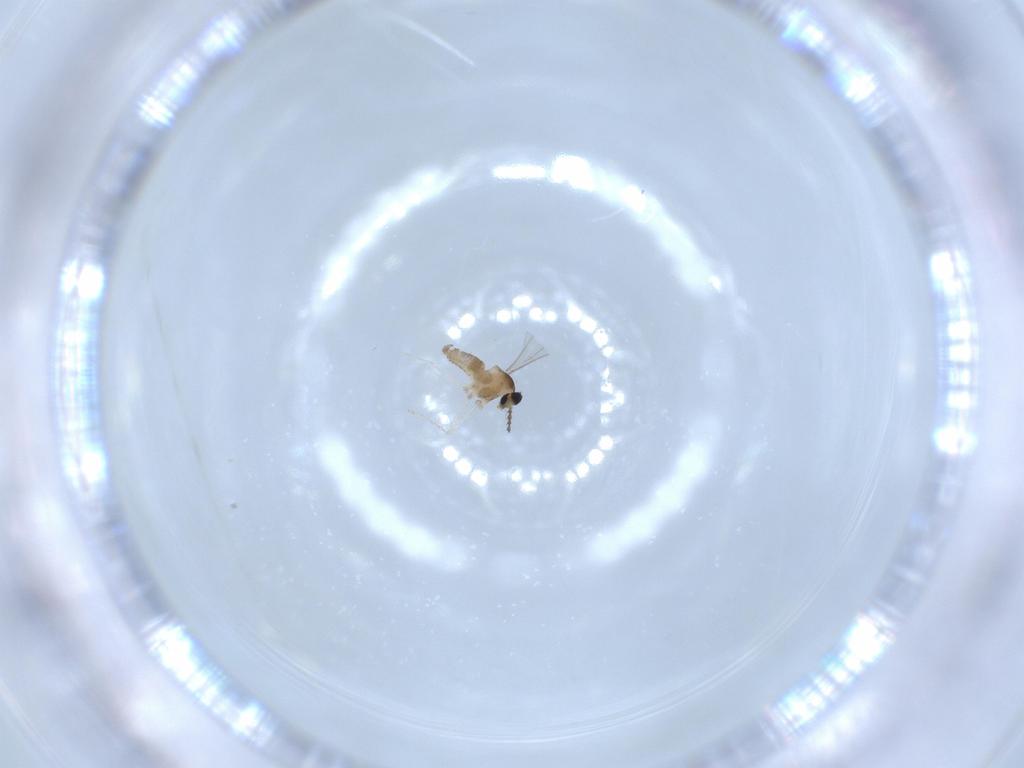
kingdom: Animalia
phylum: Arthropoda
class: Insecta
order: Diptera
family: Cecidomyiidae
